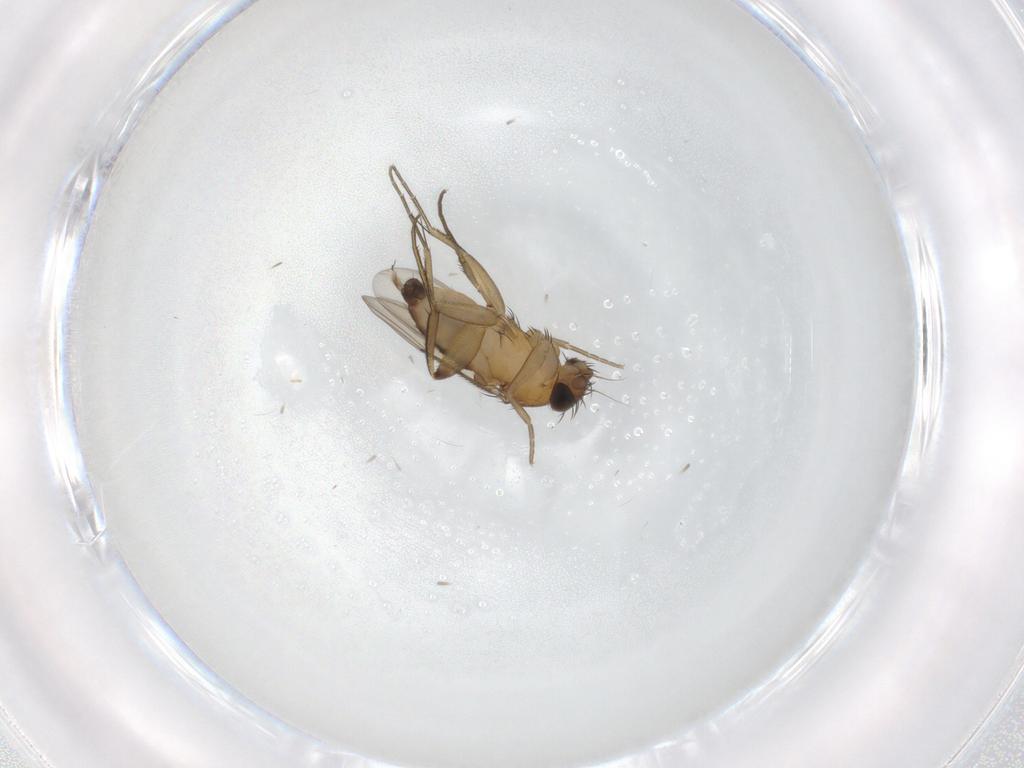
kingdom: Animalia
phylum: Arthropoda
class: Insecta
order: Diptera
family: Phoridae
